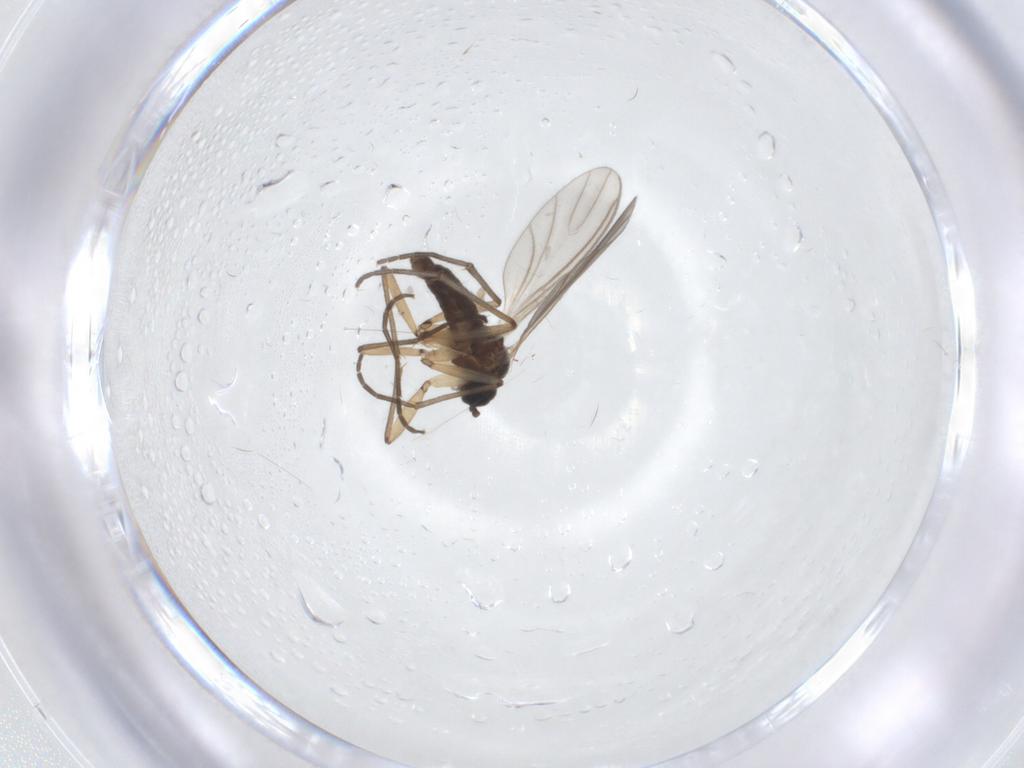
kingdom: Animalia
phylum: Arthropoda
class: Insecta
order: Diptera
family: Sciaridae
